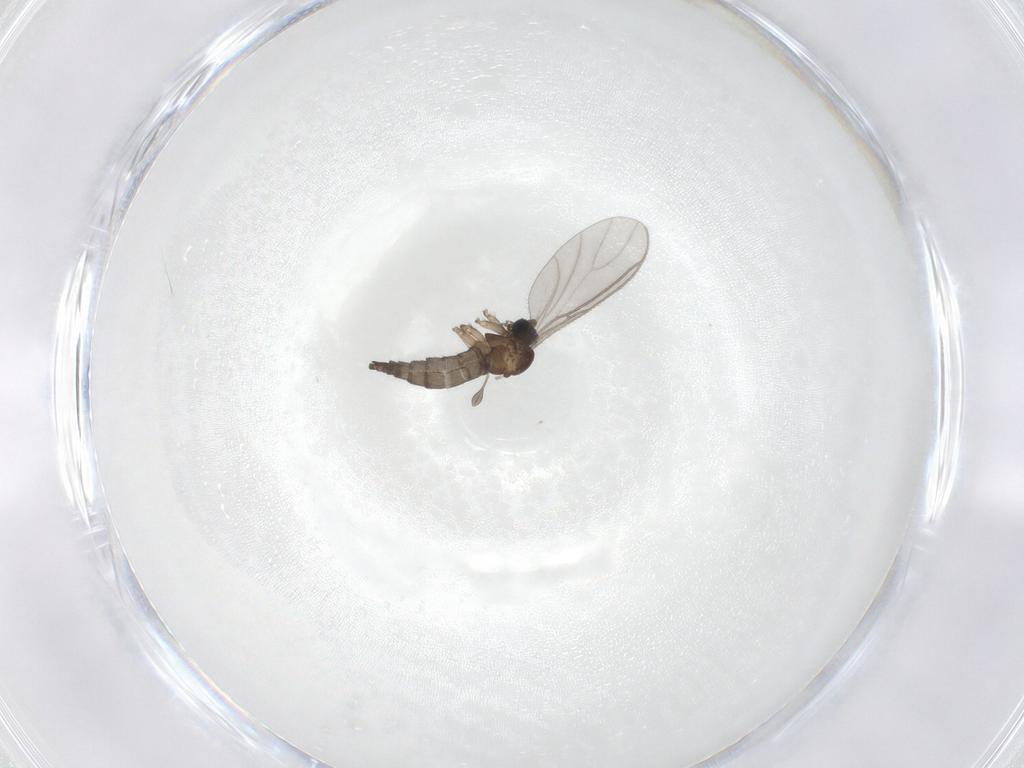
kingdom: Animalia
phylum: Arthropoda
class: Insecta
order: Diptera
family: Sciaridae
